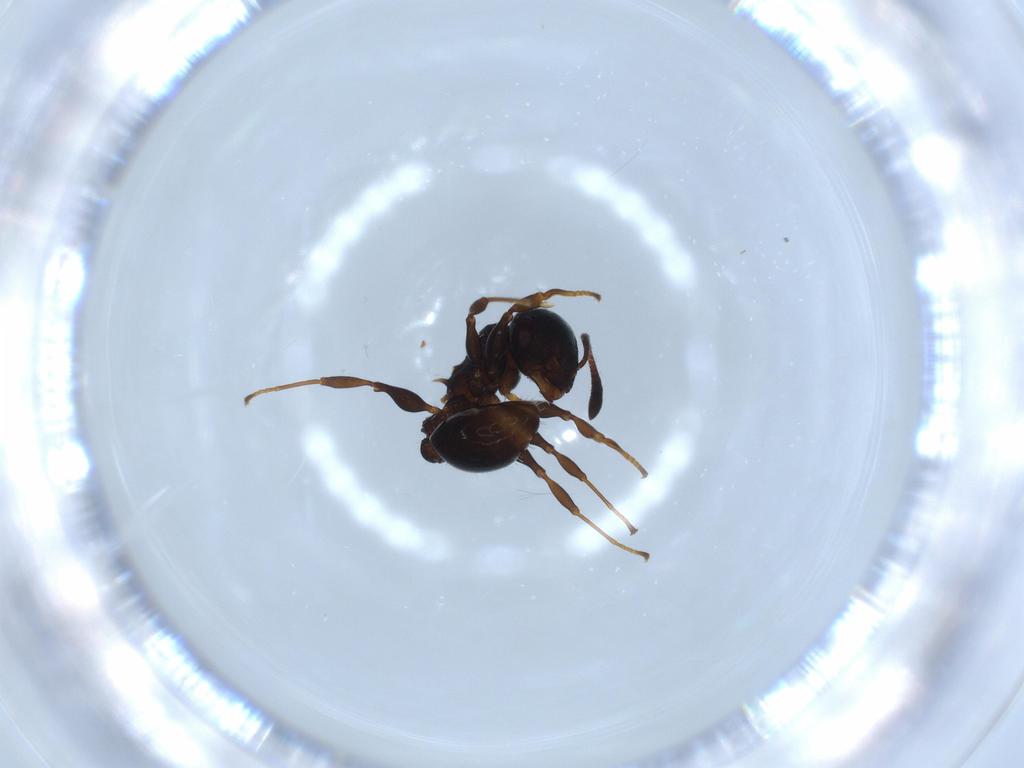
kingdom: Animalia
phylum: Arthropoda
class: Insecta
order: Hymenoptera
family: Formicidae
